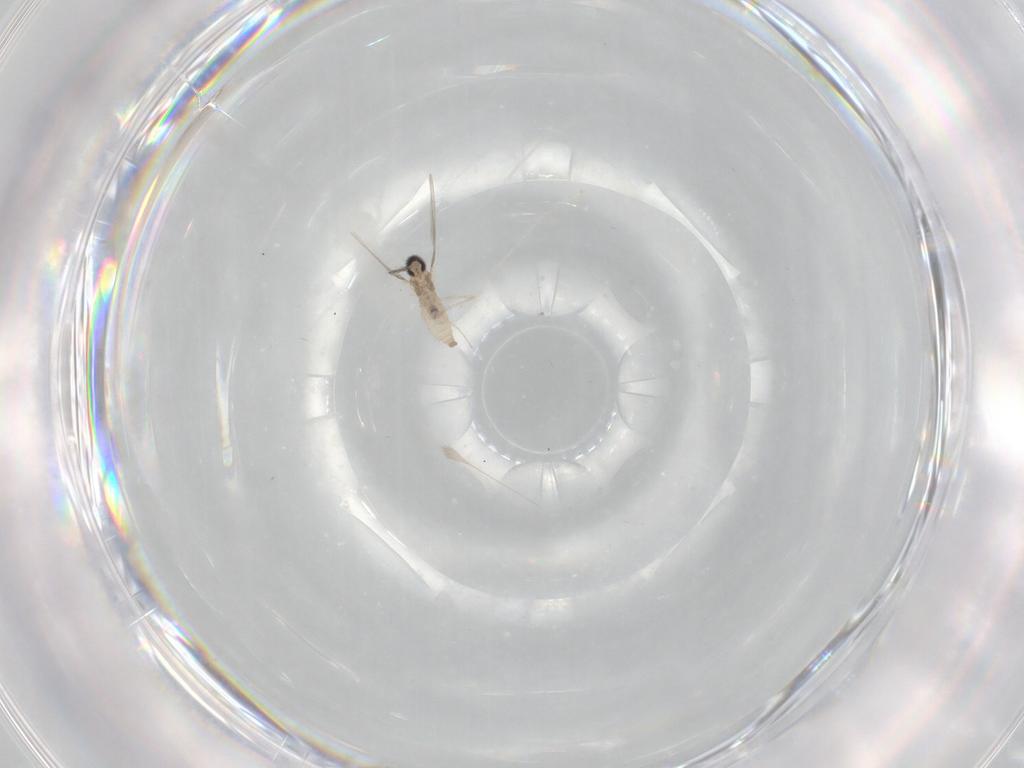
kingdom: Animalia
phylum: Arthropoda
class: Insecta
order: Diptera
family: Cecidomyiidae
